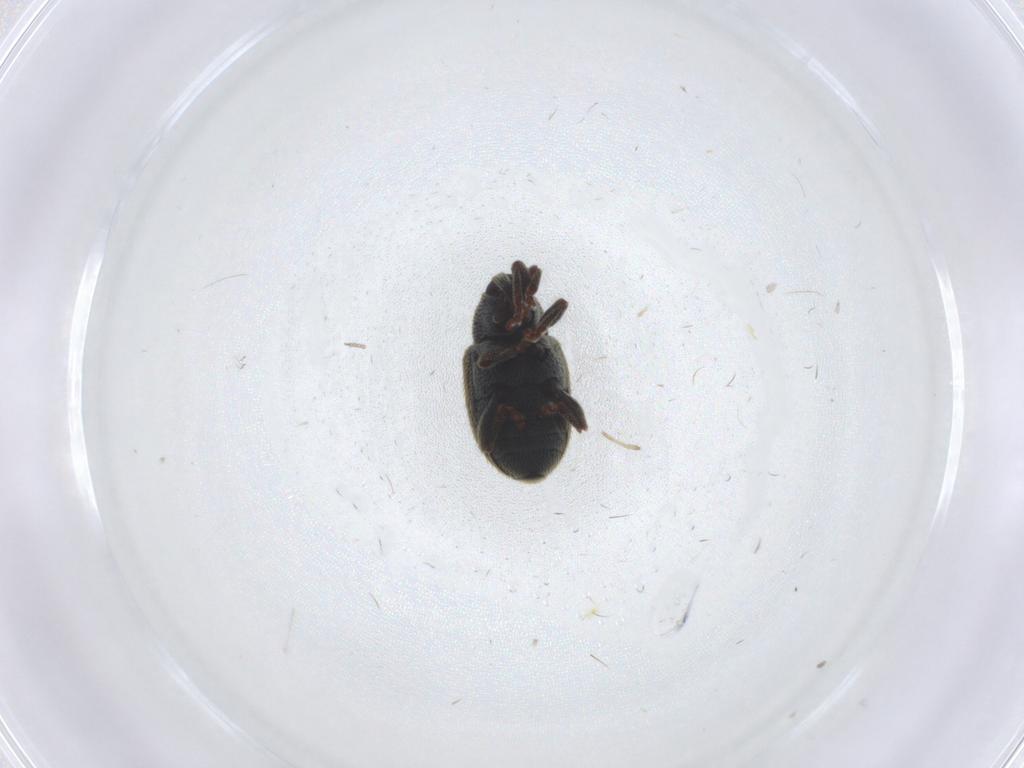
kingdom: Animalia
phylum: Arthropoda
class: Insecta
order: Coleoptera
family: Curculionidae
